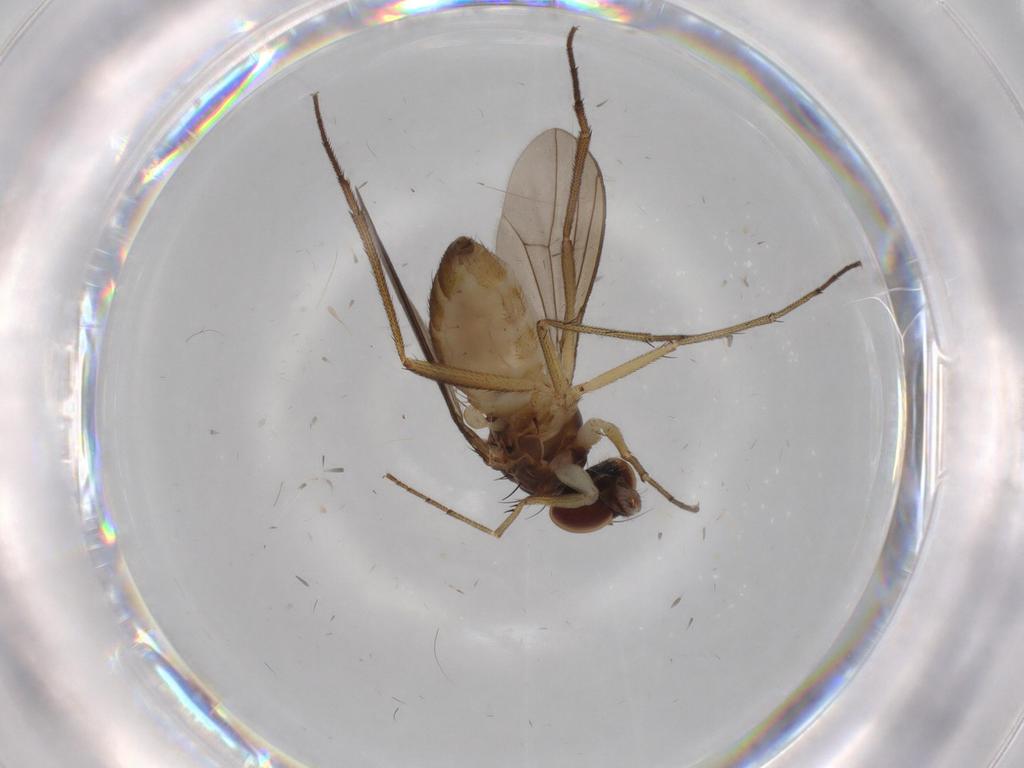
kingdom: Animalia
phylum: Arthropoda
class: Insecta
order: Diptera
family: Dolichopodidae
